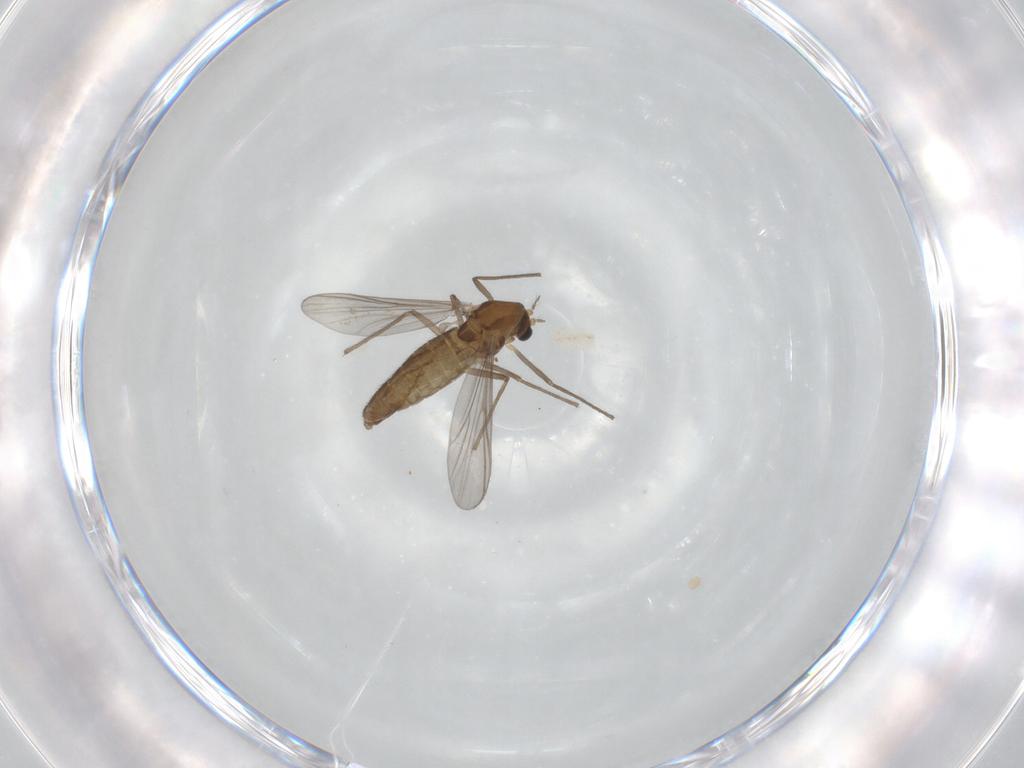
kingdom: Animalia
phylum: Arthropoda
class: Insecta
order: Diptera
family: Chironomidae
